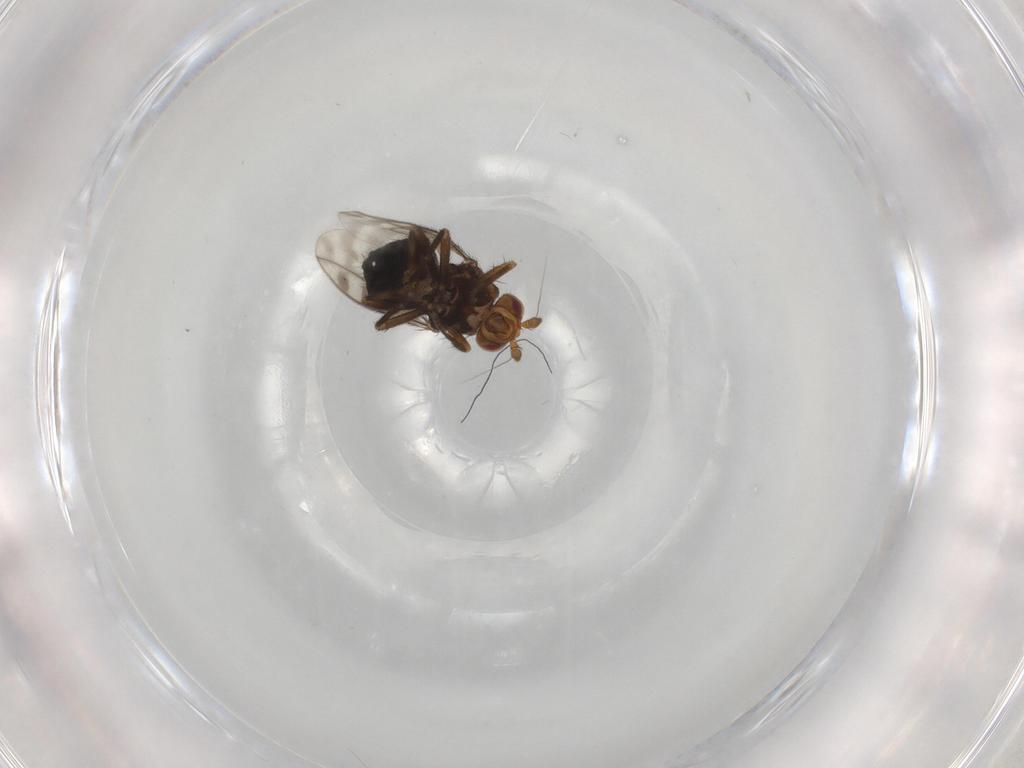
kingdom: Animalia
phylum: Arthropoda
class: Insecta
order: Diptera
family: Sphaeroceridae
